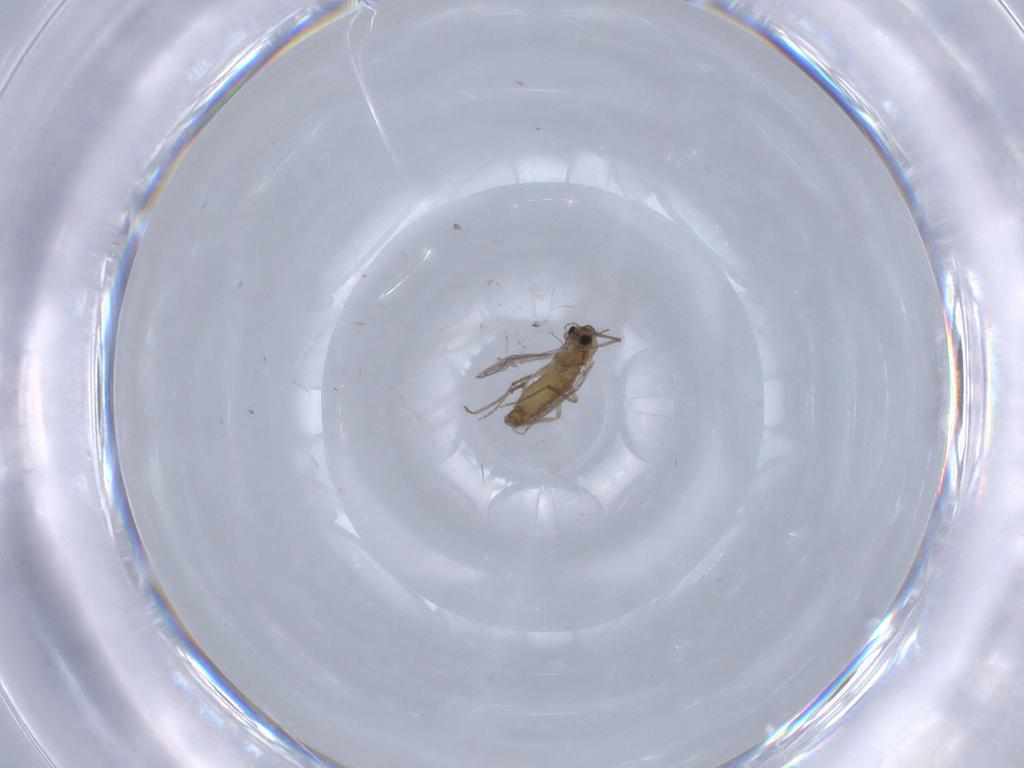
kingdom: Animalia
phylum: Arthropoda
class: Insecta
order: Diptera
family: Chironomidae
